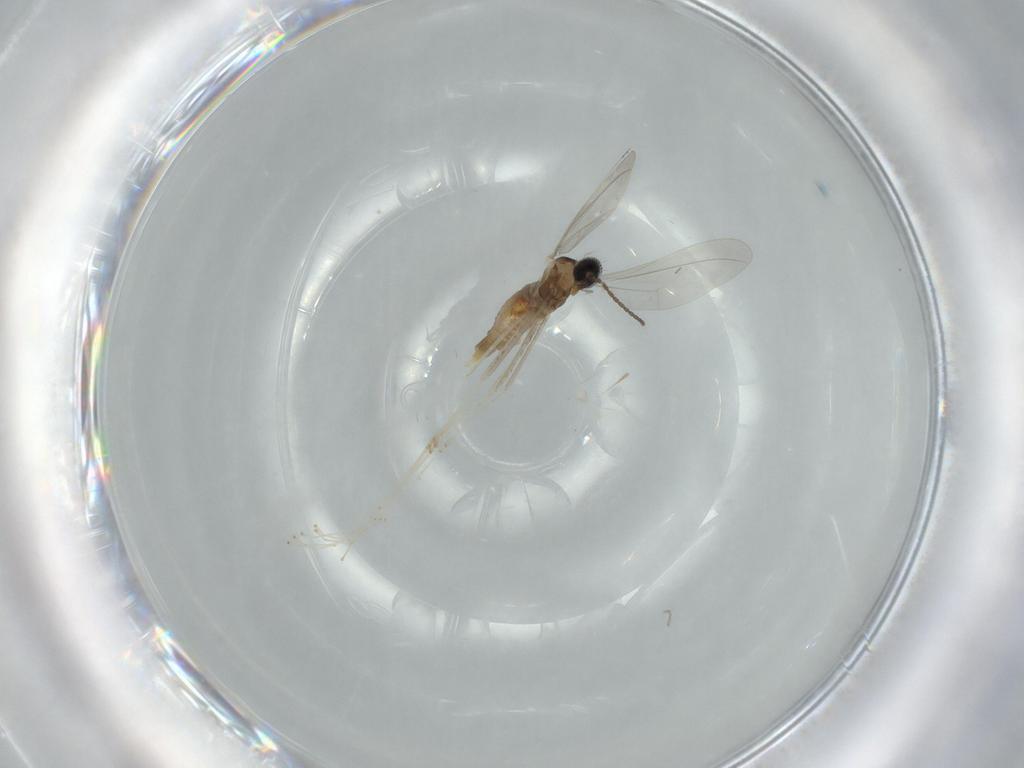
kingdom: Animalia
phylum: Arthropoda
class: Insecta
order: Diptera
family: Cecidomyiidae
